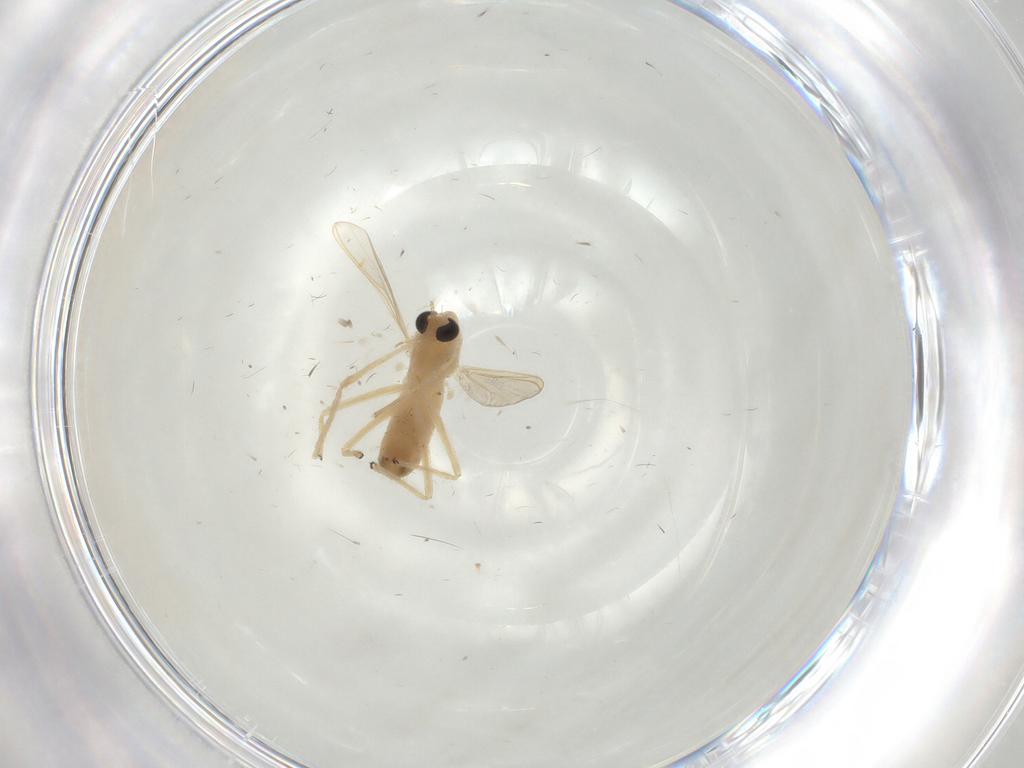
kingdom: Animalia
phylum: Arthropoda
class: Insecta
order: Diptera
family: Chironomidae
